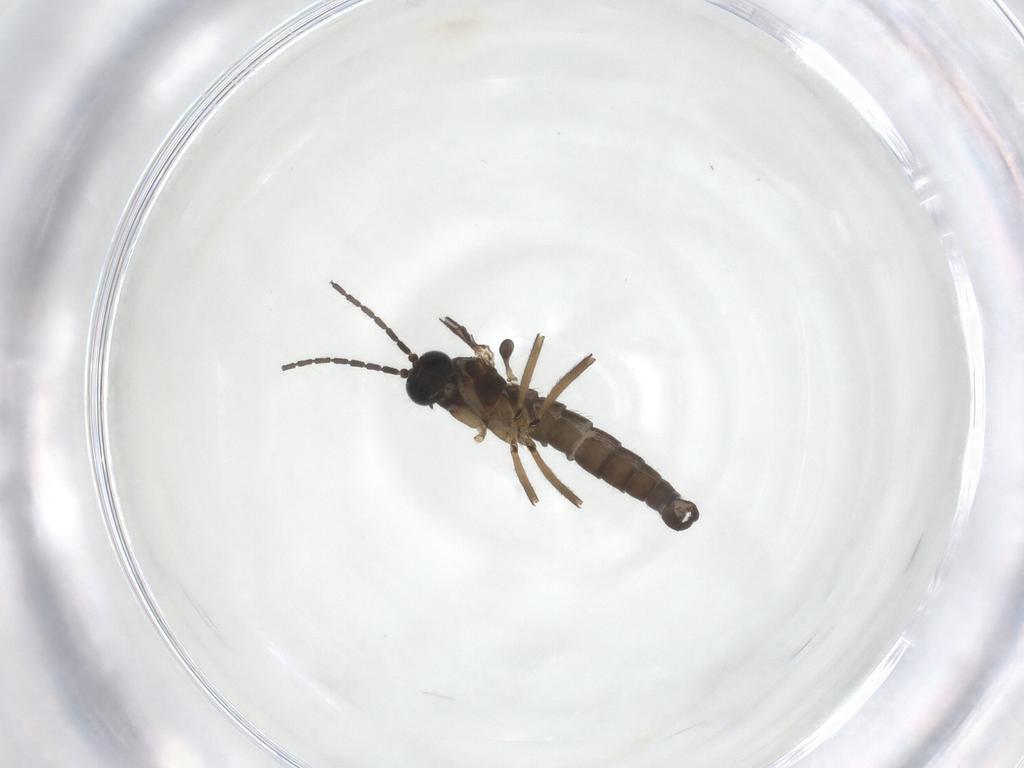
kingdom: Animalia
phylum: Arthropoda
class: Insecta
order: Diptera
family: Sciaridae
